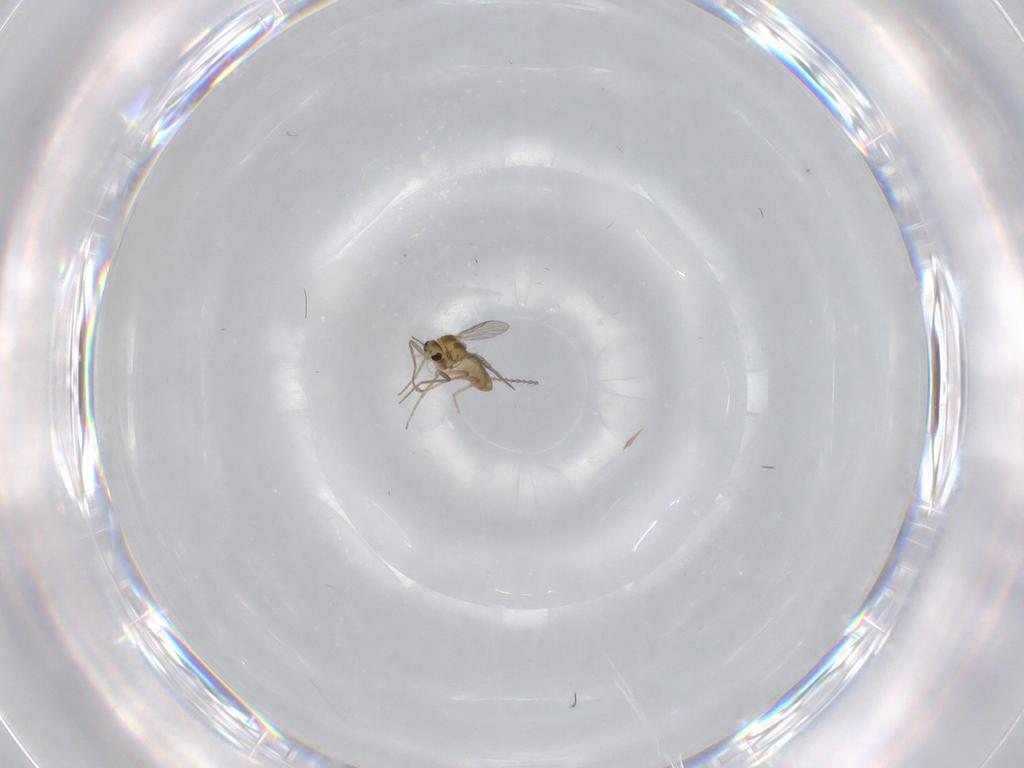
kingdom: Animalia
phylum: Arthropoda
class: Insecta
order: Diptera
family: Chironomidae
